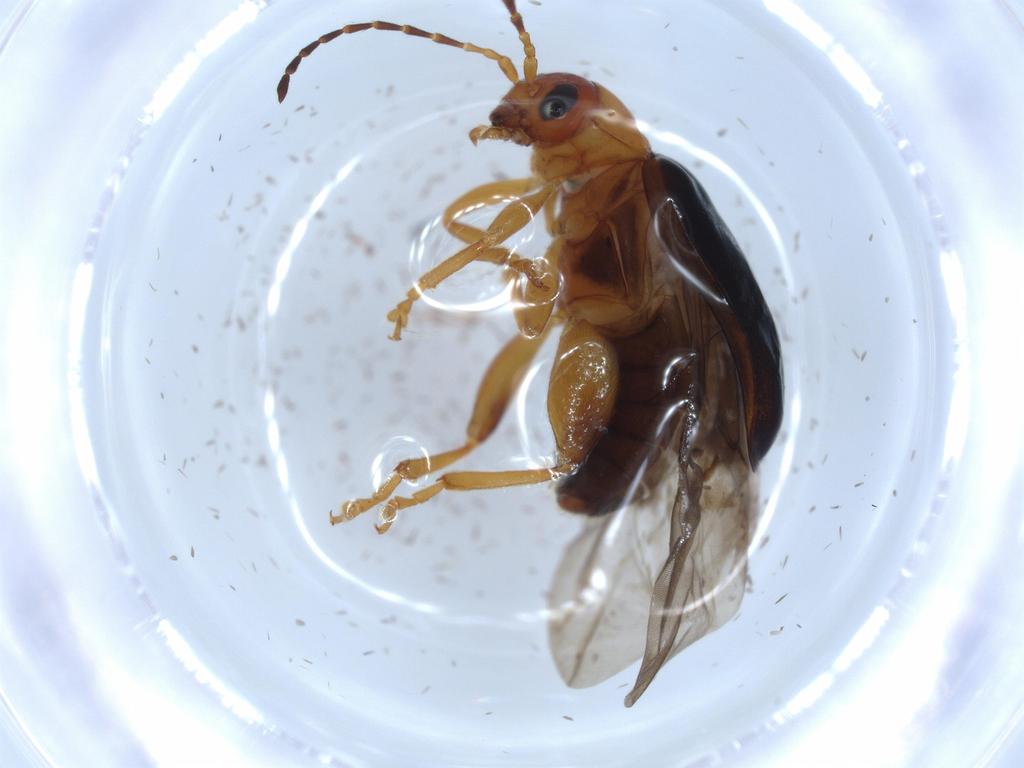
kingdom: Animalia
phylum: Arthropoda
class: Insecta
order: Coleoptera
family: Chrysomelidae
